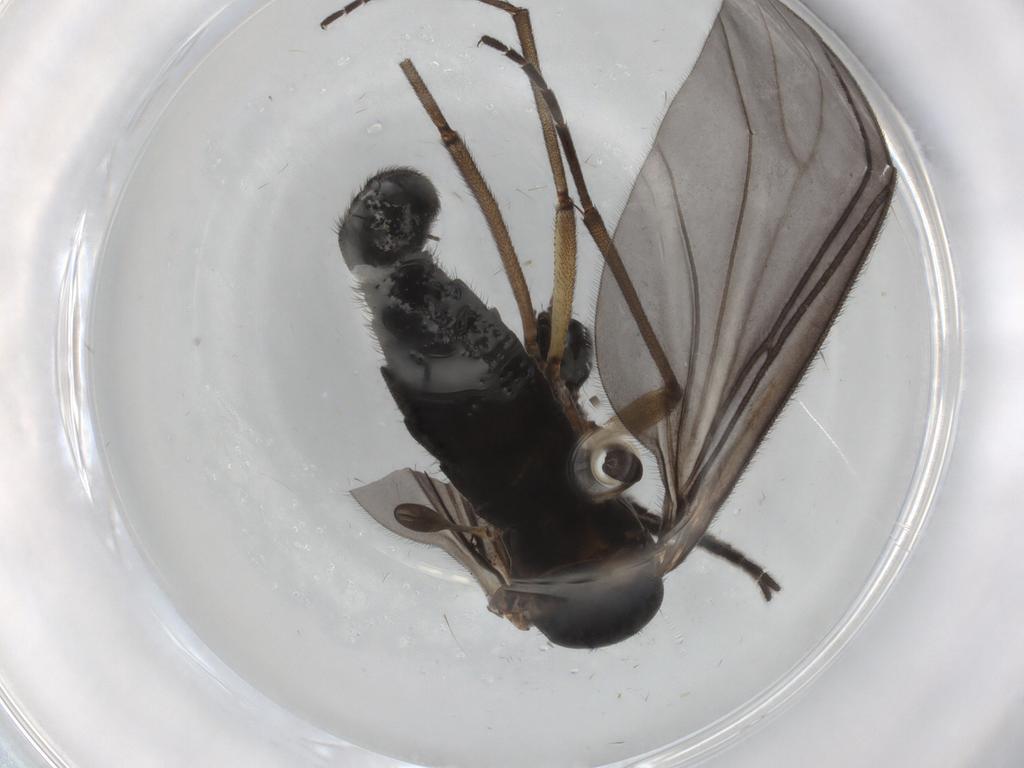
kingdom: Animalia
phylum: Arthropoda
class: Insecta
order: Diptera
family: Sciaridae
